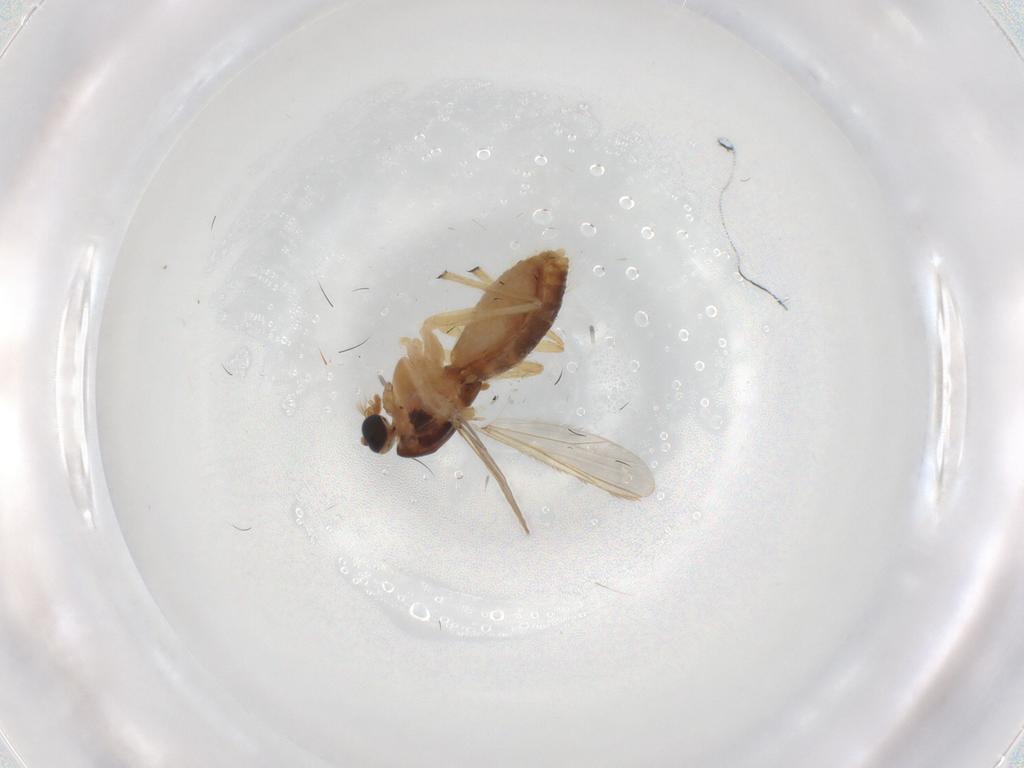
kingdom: Animalia
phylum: Arthropoda
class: Insecta
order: Diptera
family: Chironomidae
